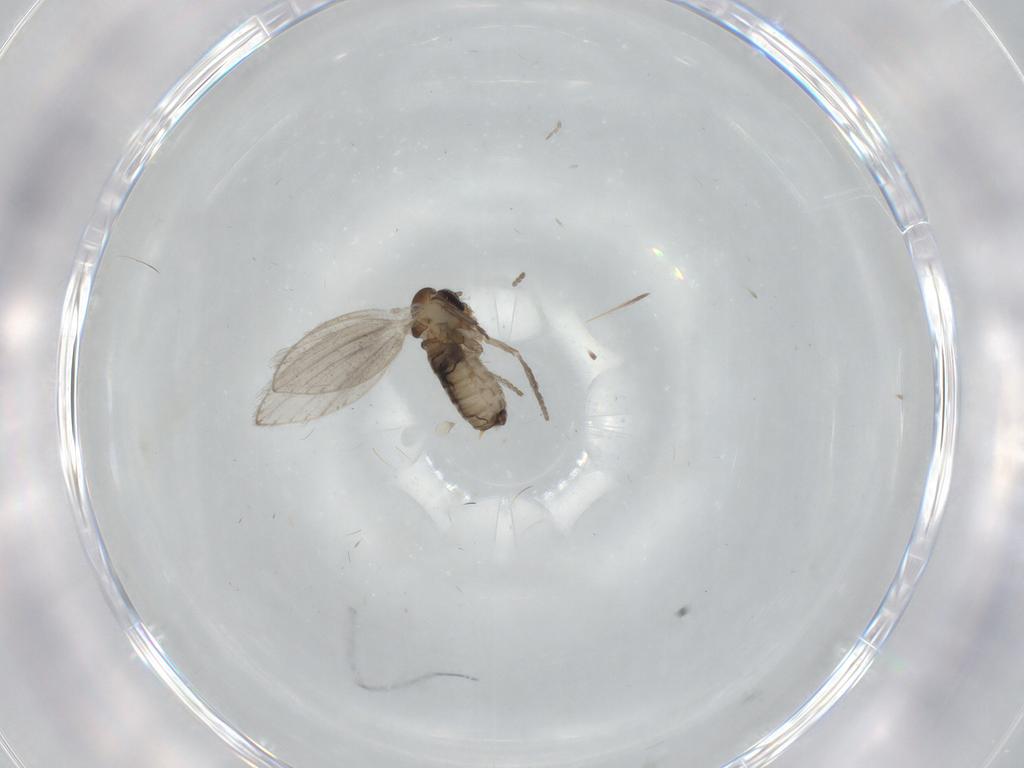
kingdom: Animalia
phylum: Arthropoda
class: Insecta
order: Diptera
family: Psychodidae
